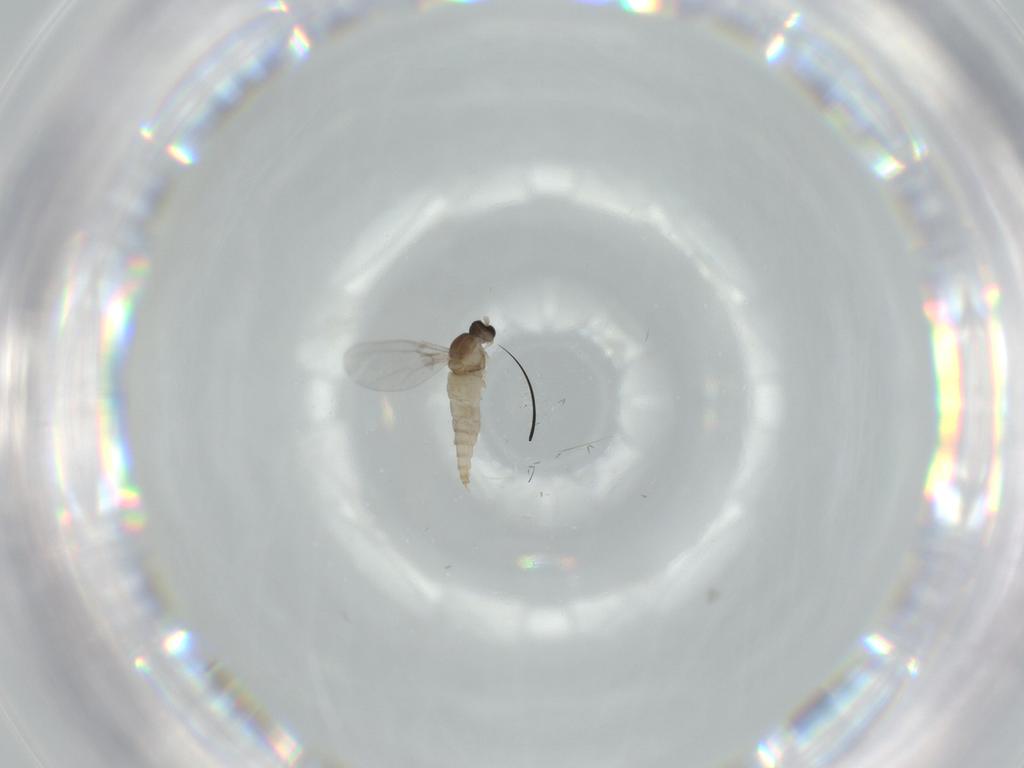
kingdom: Animalia
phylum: Arthropoda
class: Insecta
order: Diptera
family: Cecidomyiidae
